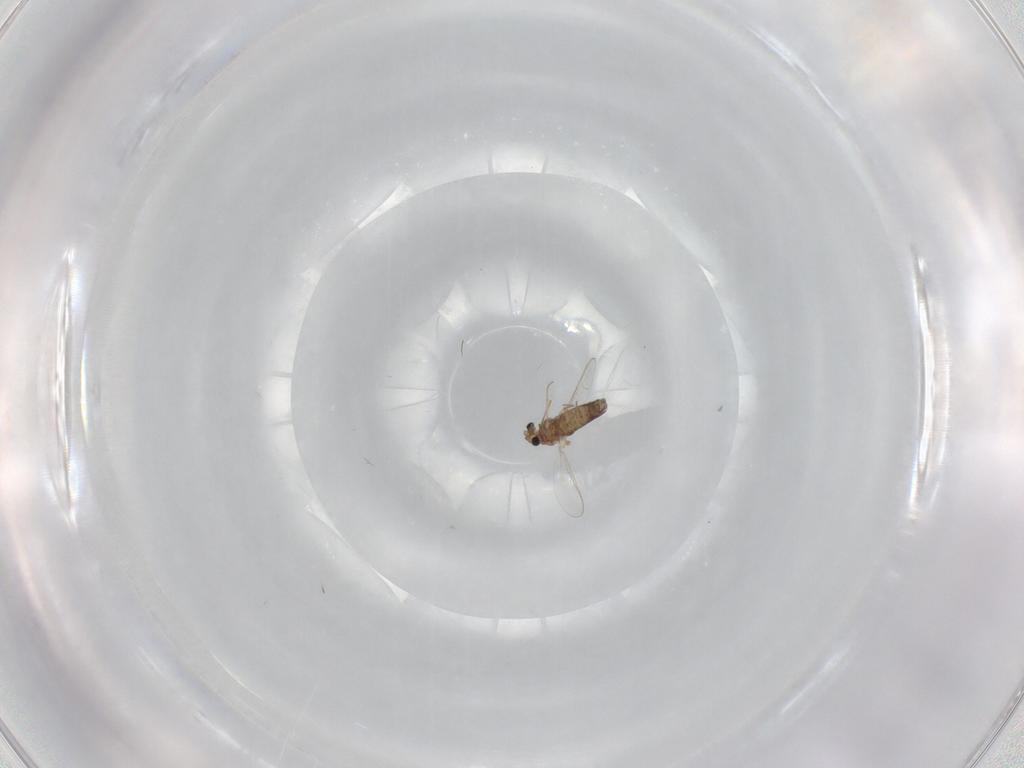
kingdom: Animalia
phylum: Arthropoda
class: Insecta
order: Diptera
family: Chironomidae
